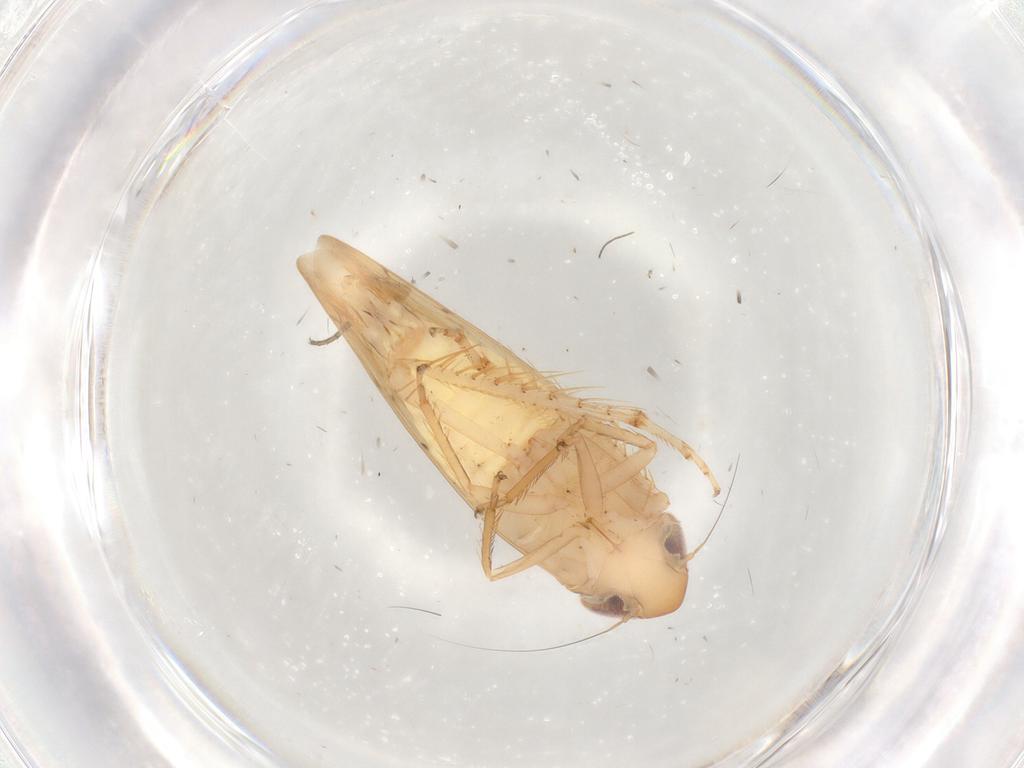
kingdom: Animalia
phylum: Arthropoda
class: Insecta
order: Hemiptera
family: Cicadellidae
